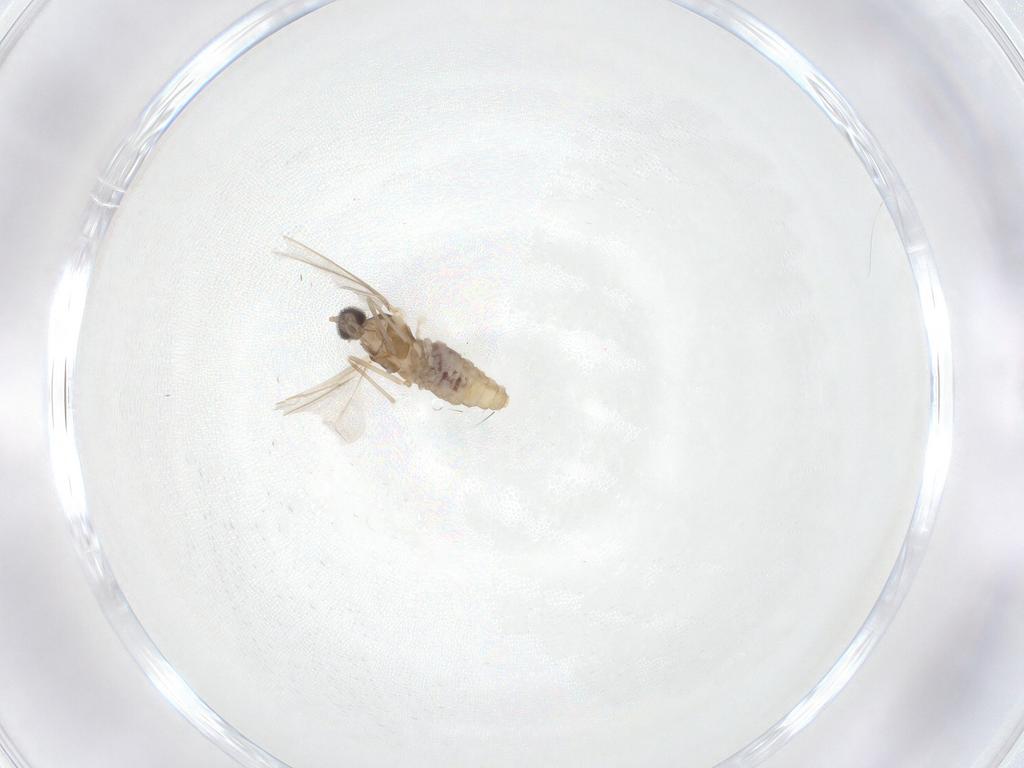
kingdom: Animalia
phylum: Arthropoda
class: Insecta
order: Diptera
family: Cecidomyiidae
